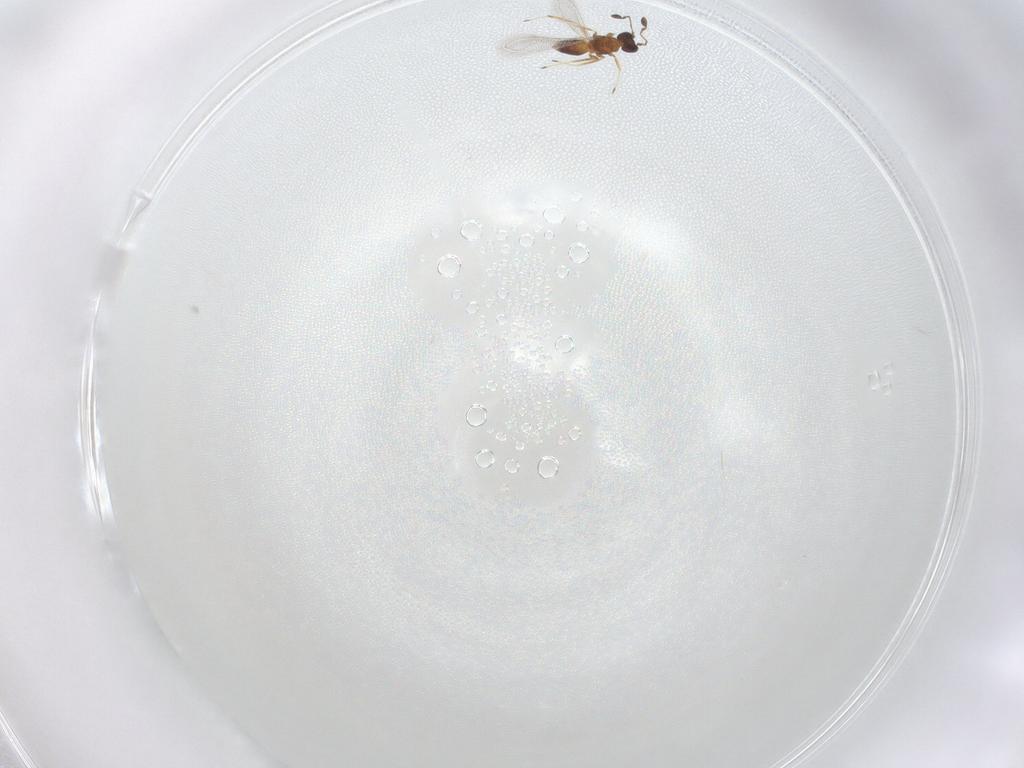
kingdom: Animalia
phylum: Arthropoda
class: Insecta
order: Hymenoptera
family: Mymaridae
